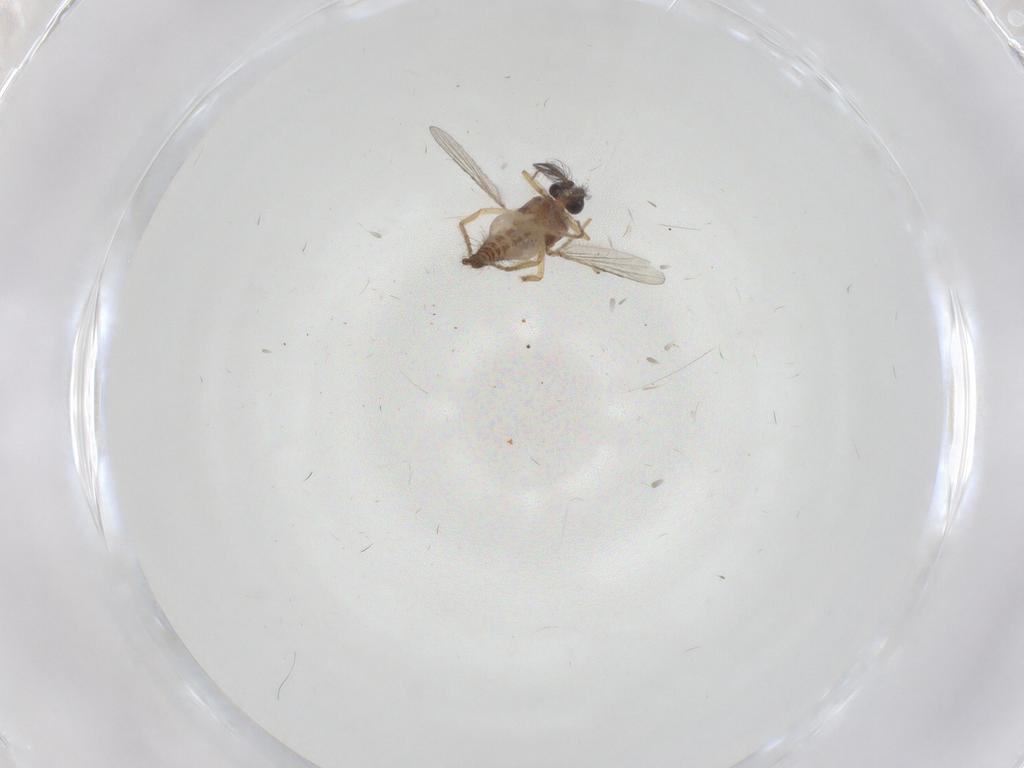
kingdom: Animalia
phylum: Arthropoda
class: Insecta
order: Diptera
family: Ceratopogonidae
